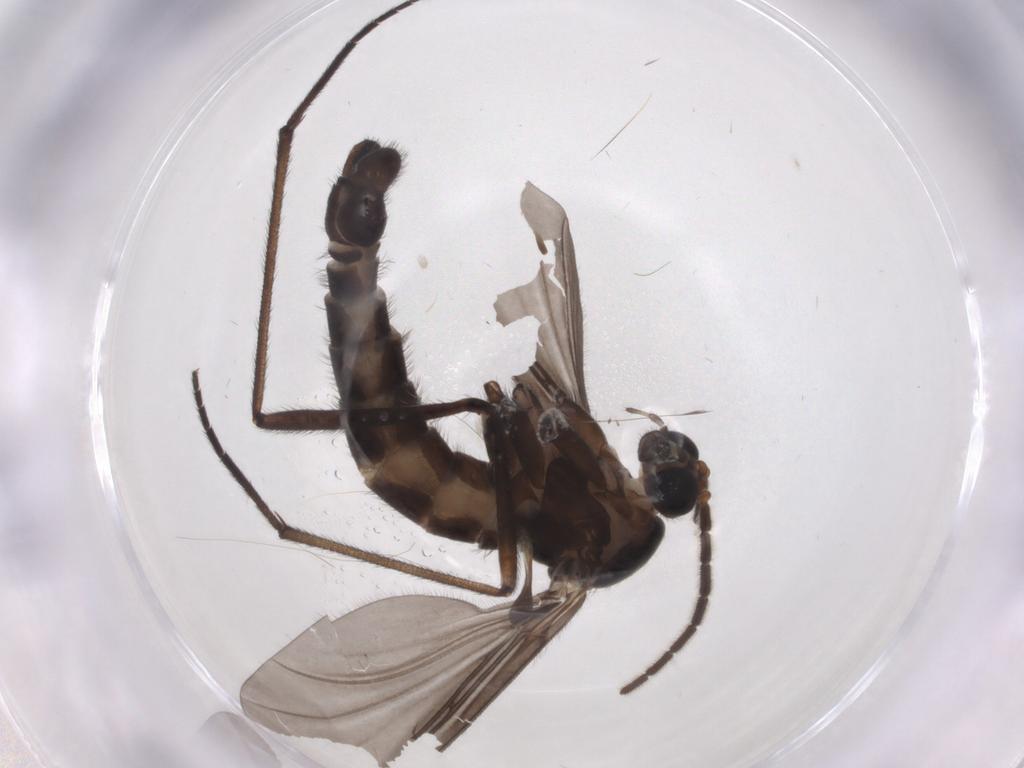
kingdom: Animalia
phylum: Arthropoda
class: Insecta
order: Diptera
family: Sciaridae
